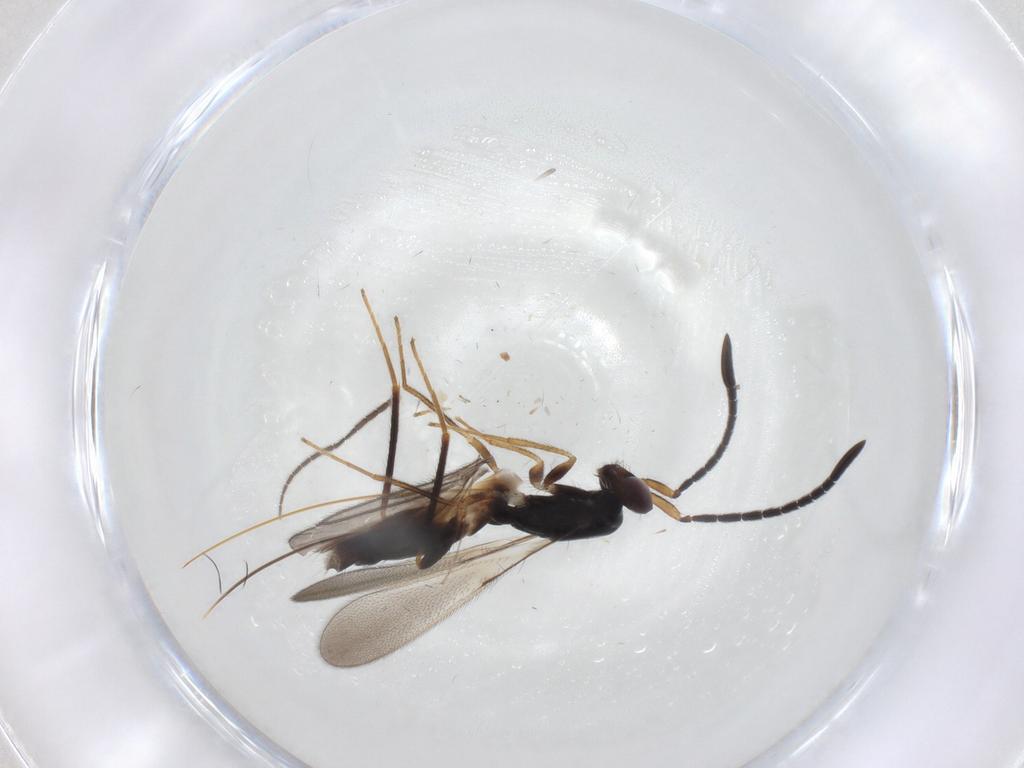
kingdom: Animalia
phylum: Arthropoda
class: Insecta
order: Diptera
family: Sciaridae
